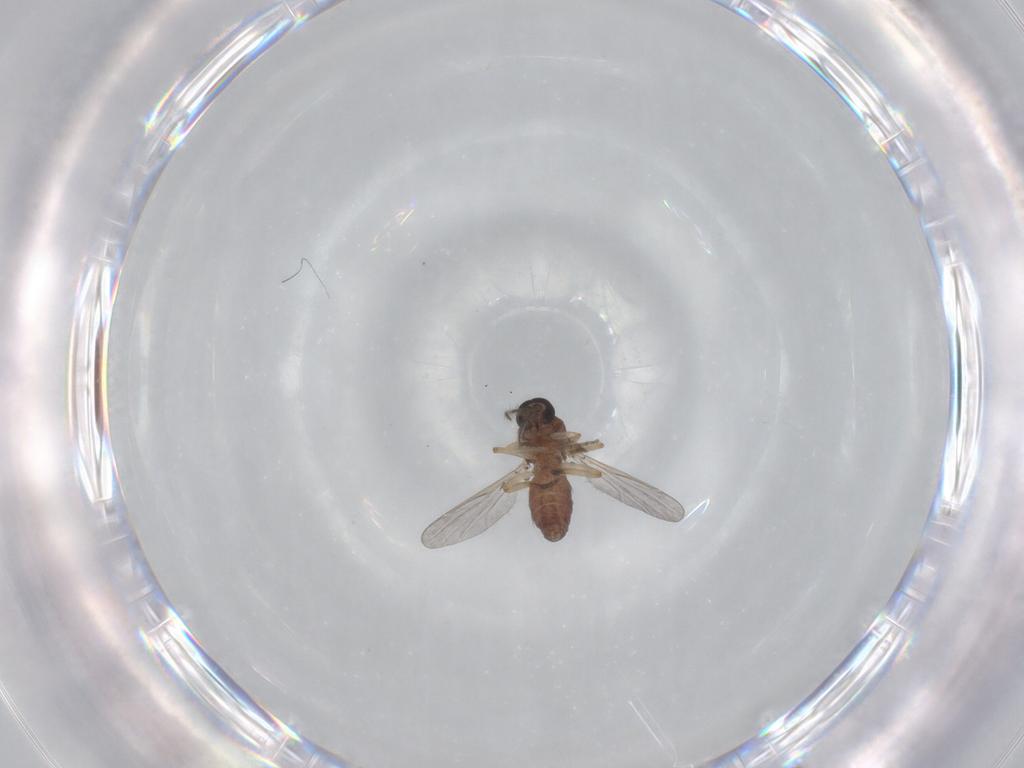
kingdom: Animalia
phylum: Arthropoda
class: Insecta
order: Diptera
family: Ceratopogonidae
